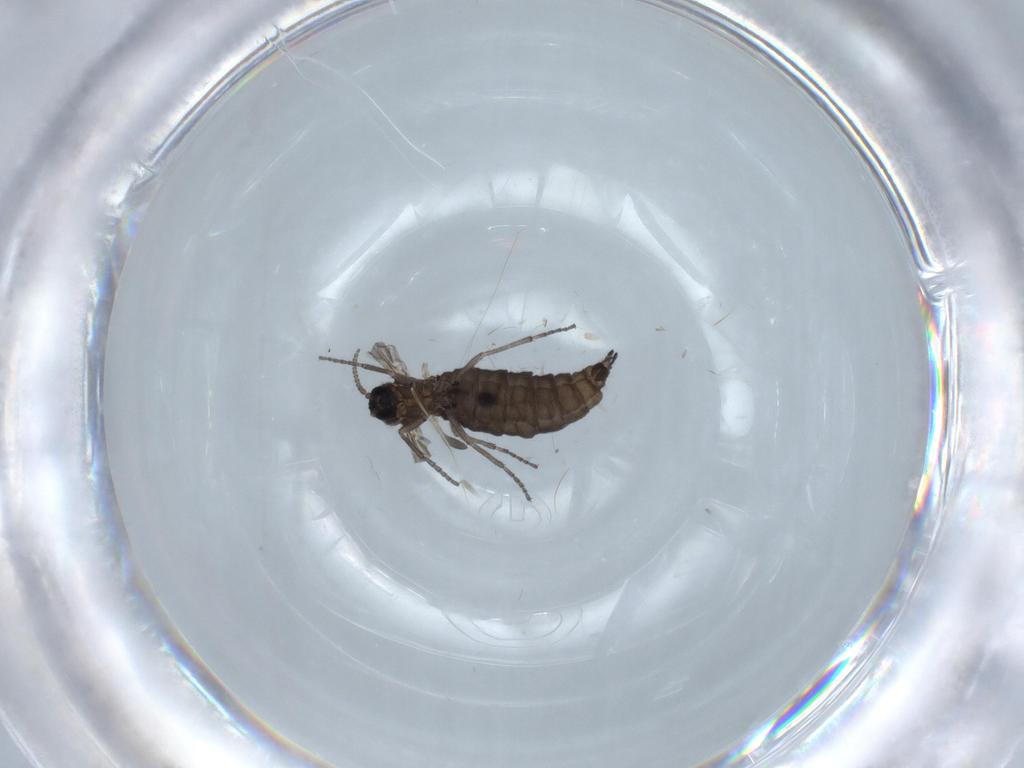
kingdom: Animalia
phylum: Arthropoda
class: Insecta
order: Diptera
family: Sciaridae
